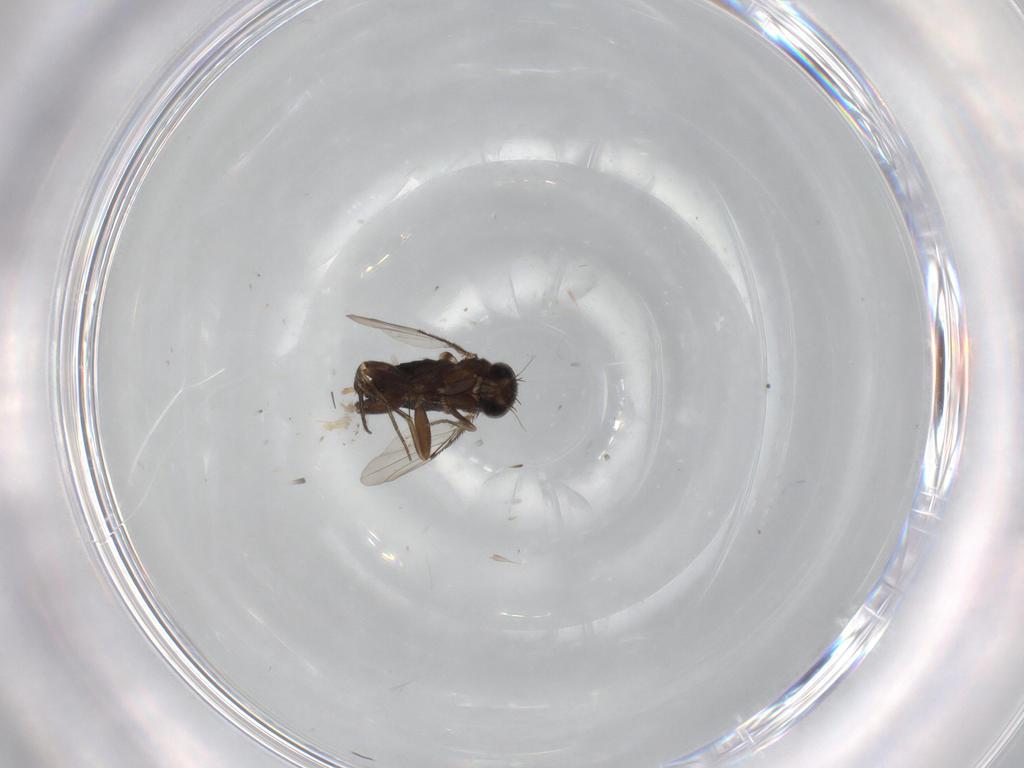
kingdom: Animalia
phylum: Arthropoda
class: Insecta
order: Diptera
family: Phoridae
